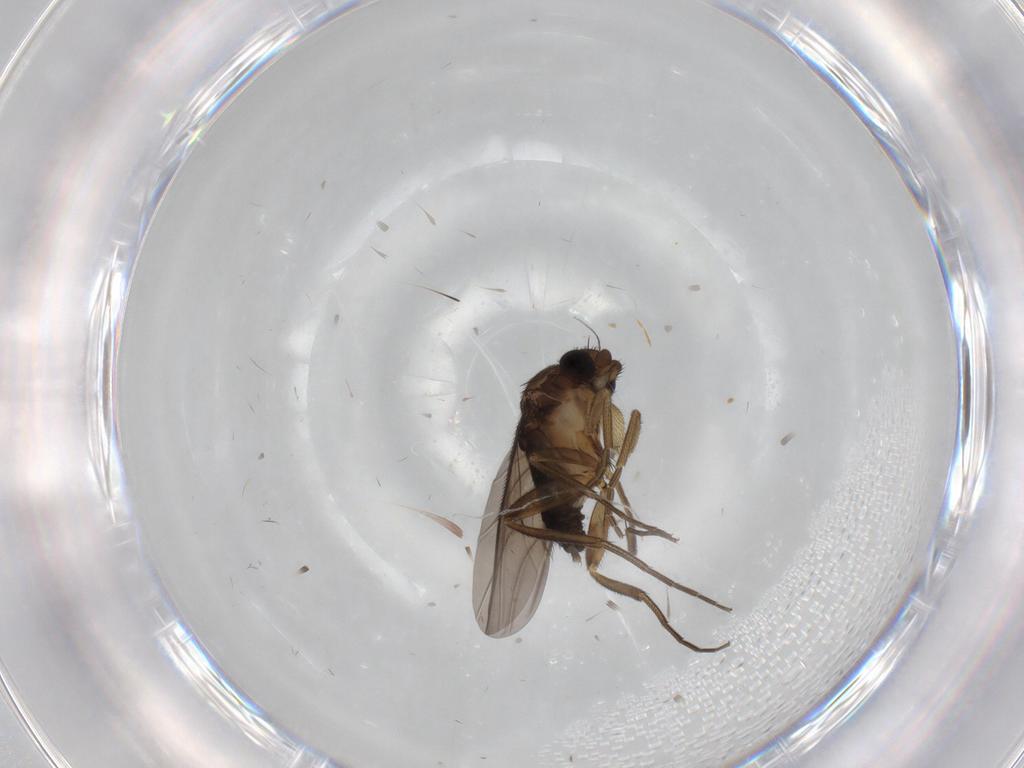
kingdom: Animalia
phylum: Arthropoda
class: Insecta
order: Diptera
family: Phoridae
